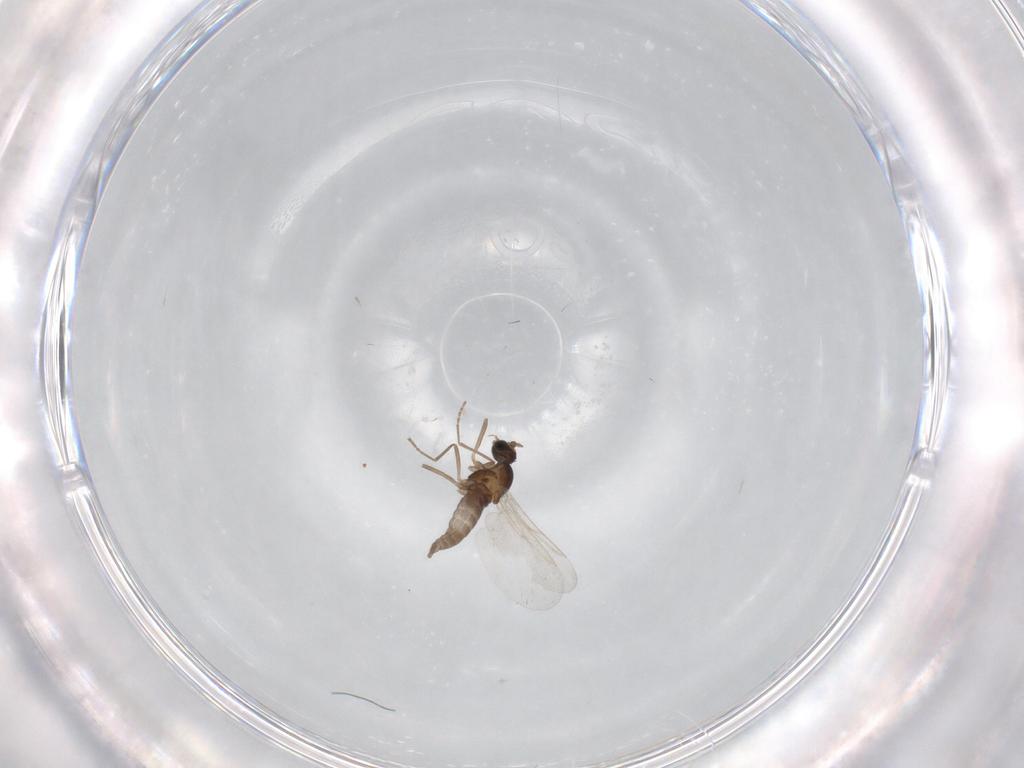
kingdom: Animalia
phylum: Arthropoda
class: Insecta
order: Diptera
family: Cecidomyiidae
